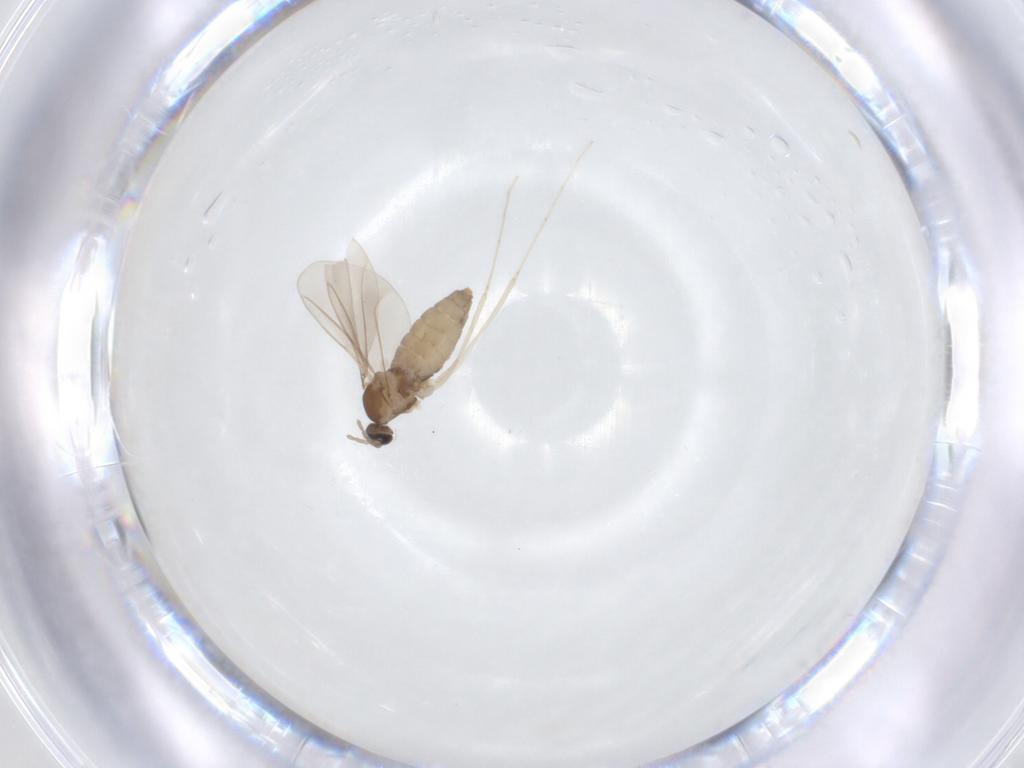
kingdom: Animalia
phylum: Arthropoda
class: Insecta
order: Diptera
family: Cecidomyiidae
